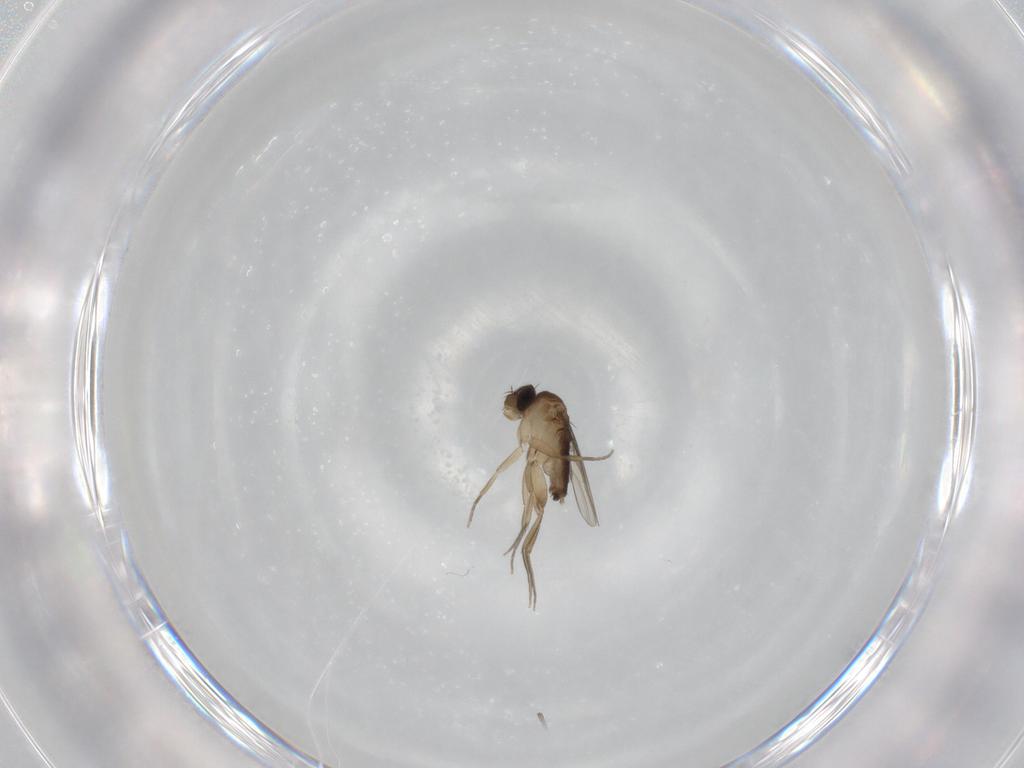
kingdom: Animalia
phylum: Arthropoda
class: Insecta
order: Diptera
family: Phoridae
